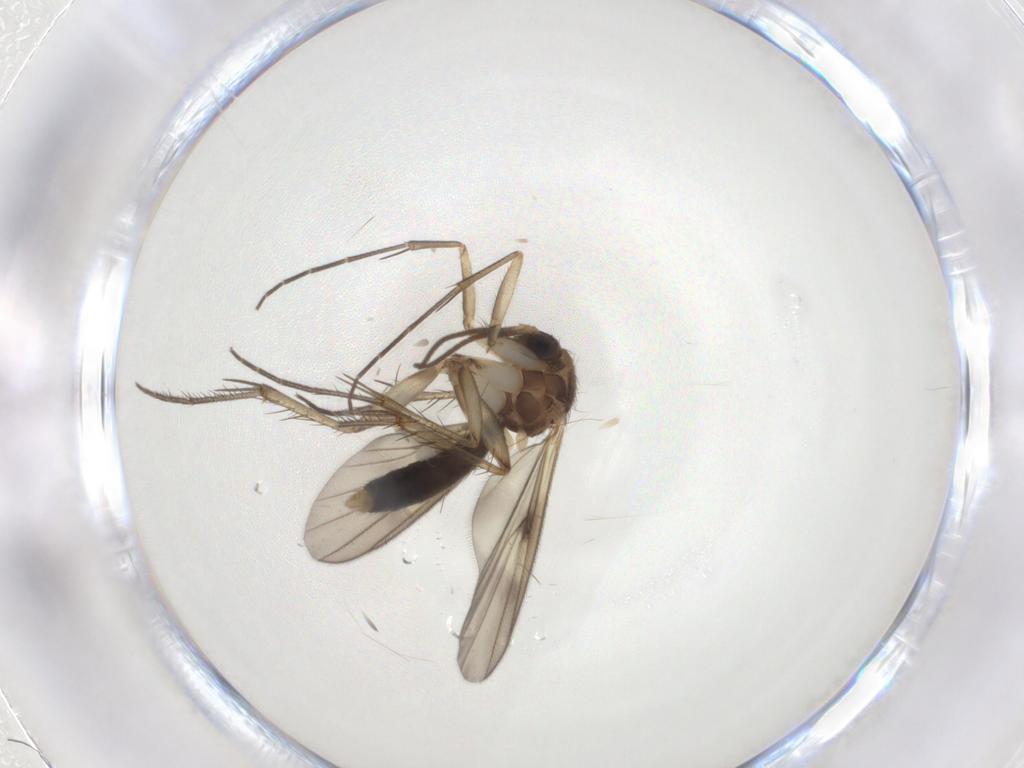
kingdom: Animalia
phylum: Arthropoda
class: Insecta
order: Diptera
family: Mycetophilidae
